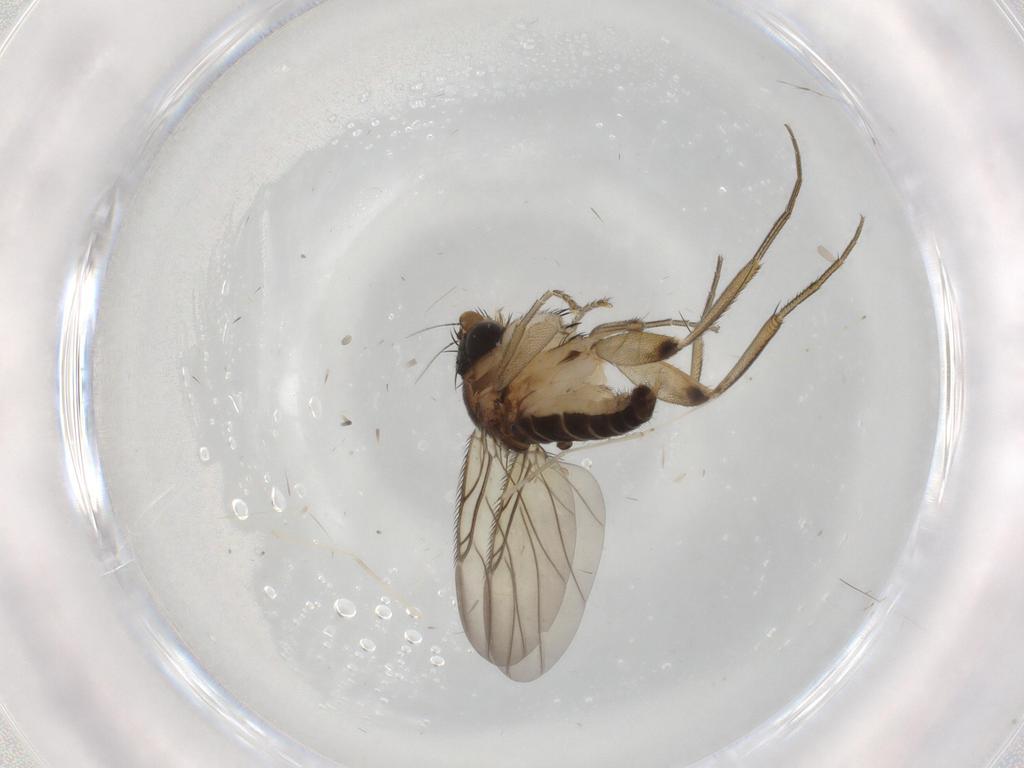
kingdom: Animalia
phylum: Arthropoda
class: Insecta
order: Diptera
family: Phoridae
